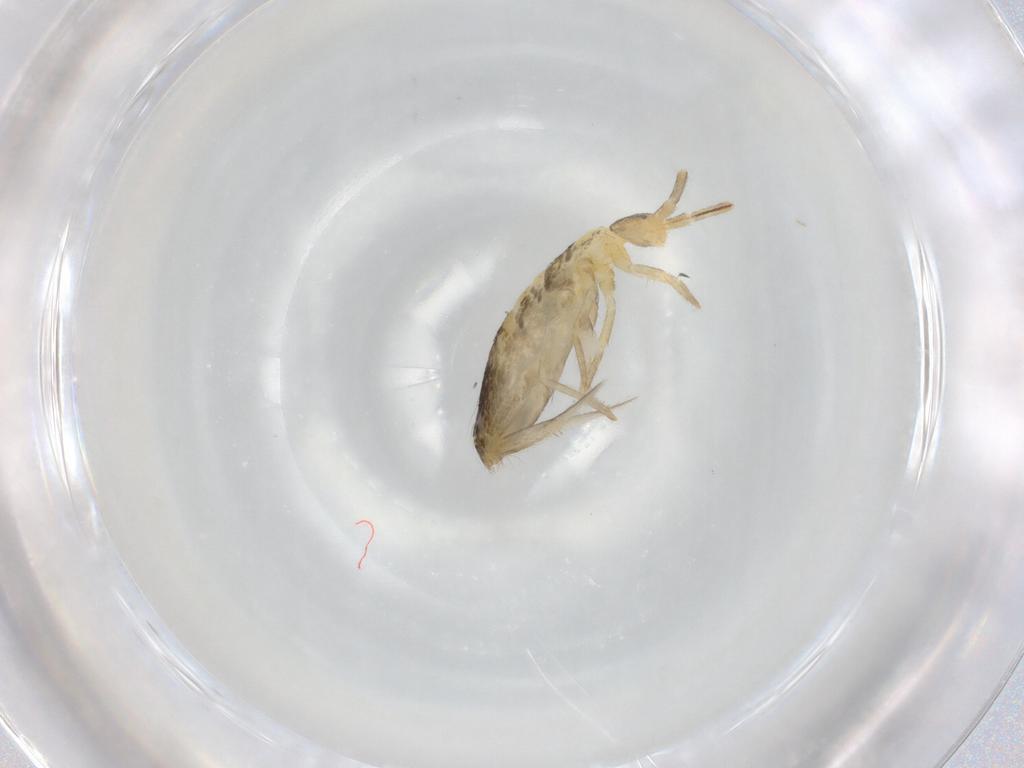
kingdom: Animalia
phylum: Arthropoda
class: Collembola
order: Entomobryomorpha
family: Entomobryidae
